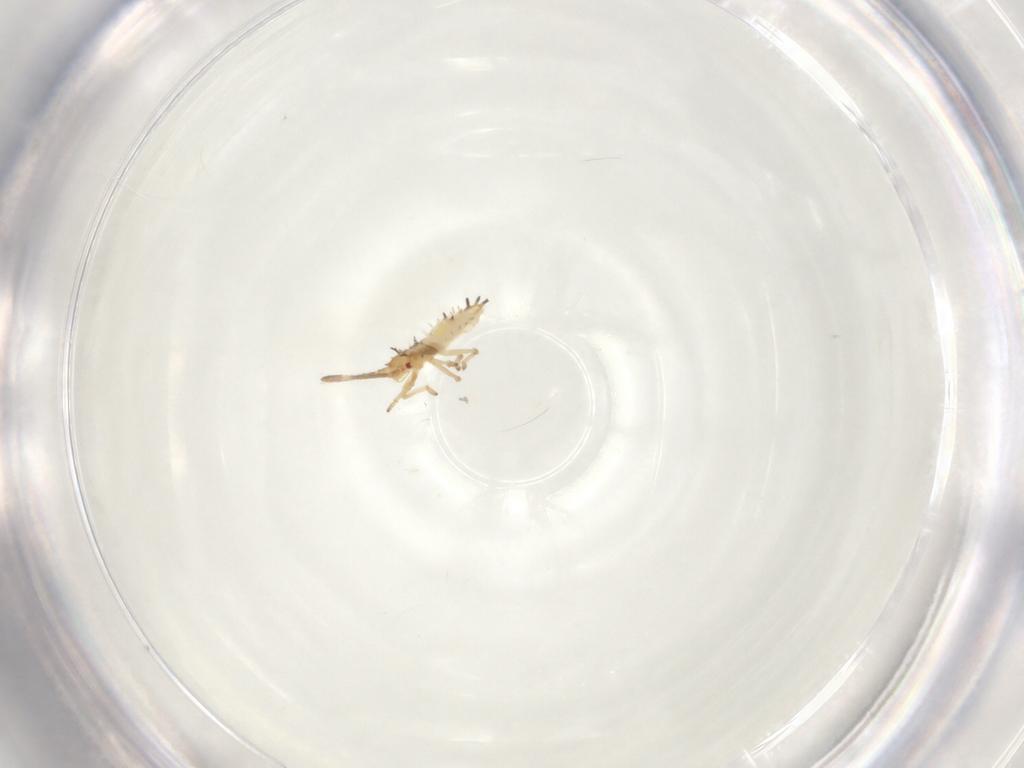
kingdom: Animalia
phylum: Arthropoda
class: Insecta
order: Hemiptera
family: Tingidae
